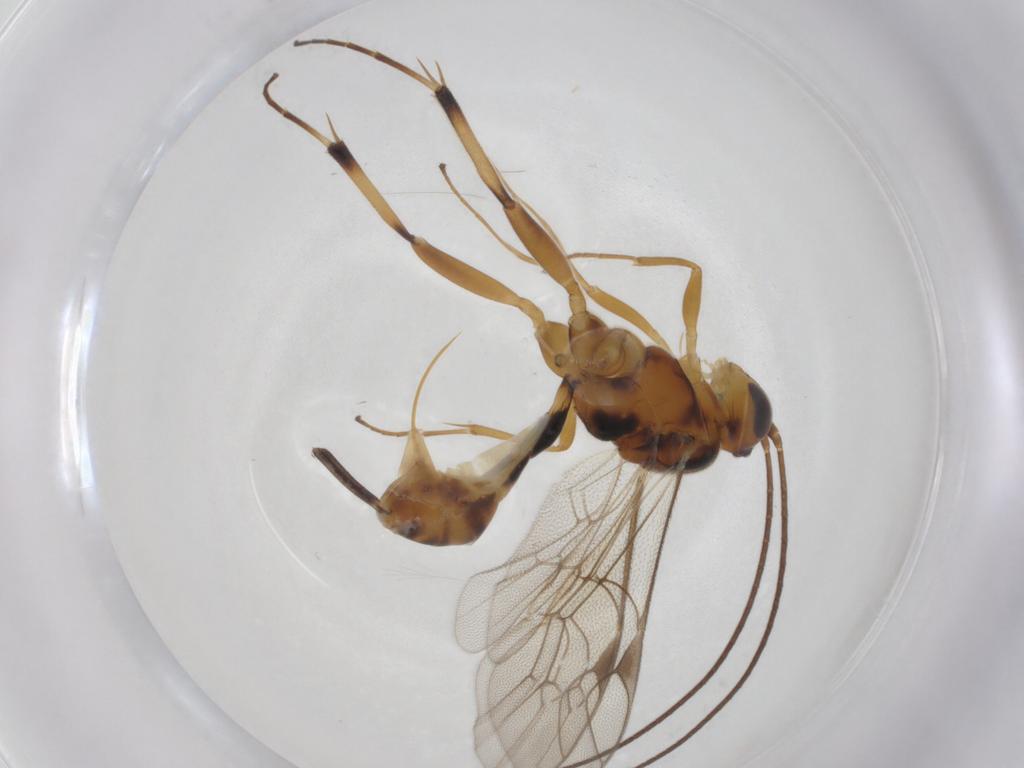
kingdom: Animalia
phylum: Arthropoda
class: Insecta
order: Hymenoptera
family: Ichneumonidae
